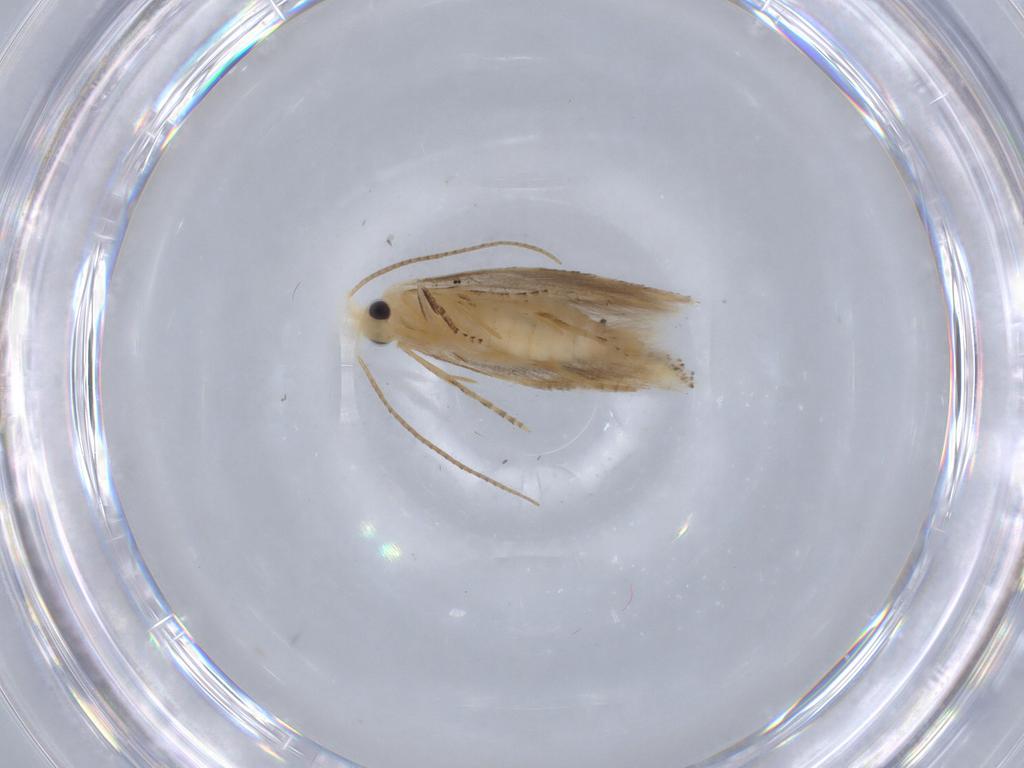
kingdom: Animalia
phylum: Arthropoda
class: Insecta
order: Lepidoptera
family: Bucculatricidae
